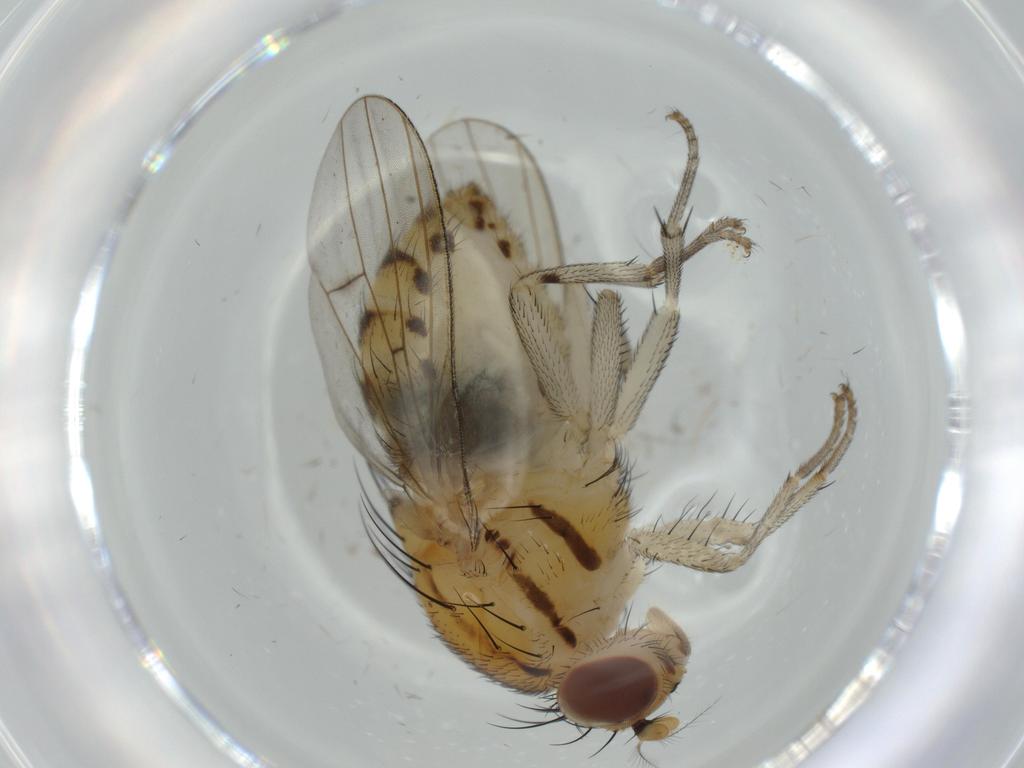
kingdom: Animalia
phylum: Arthropoda
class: Insecta
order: Diptera
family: Lauxaniidae
